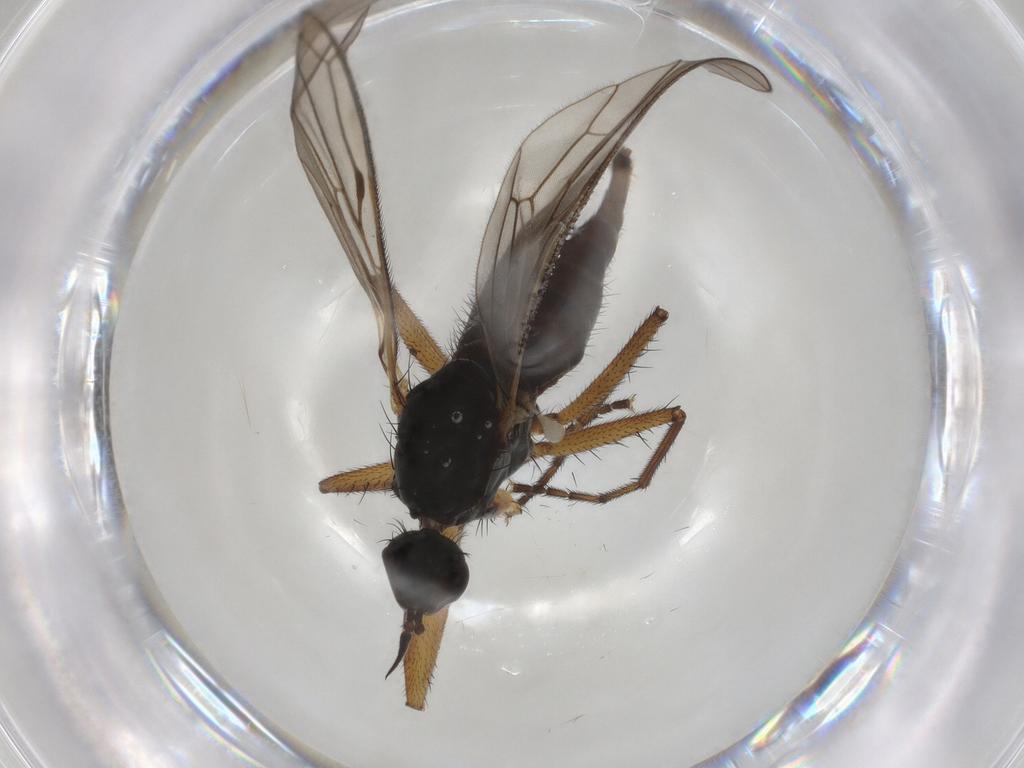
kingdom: Animalia
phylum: Arthropoda
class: Insecta
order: Diptera
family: Empididae
